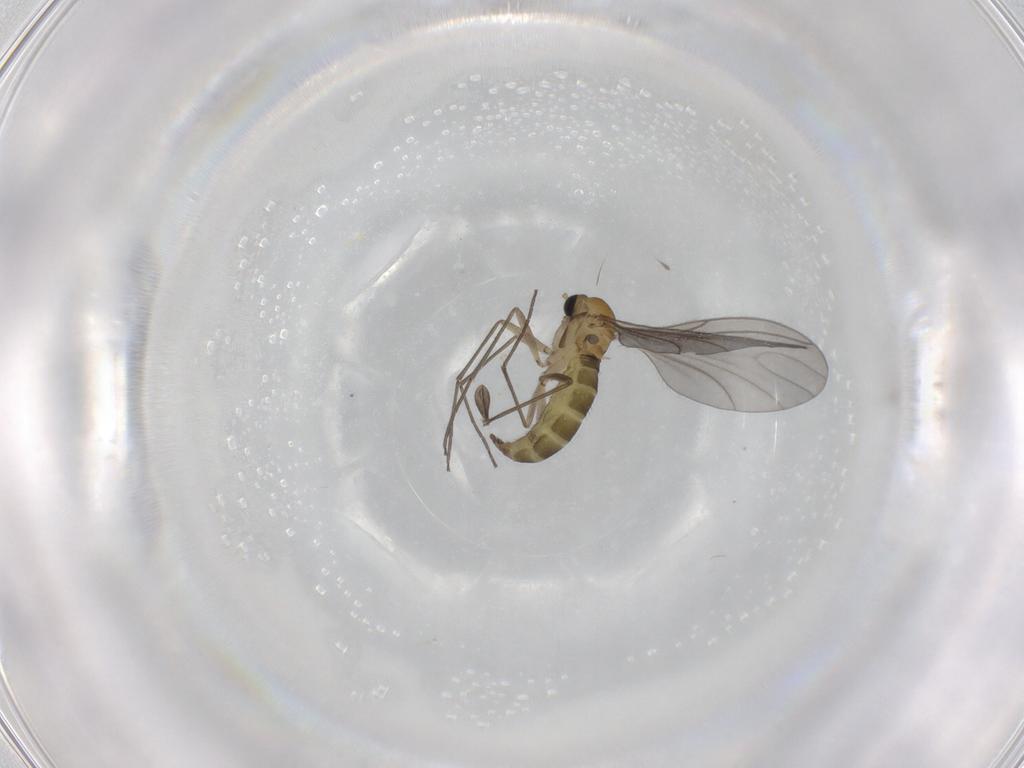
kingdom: Animalia
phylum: Arthropoda
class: Insecta
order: Diptera
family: Sciaridae
